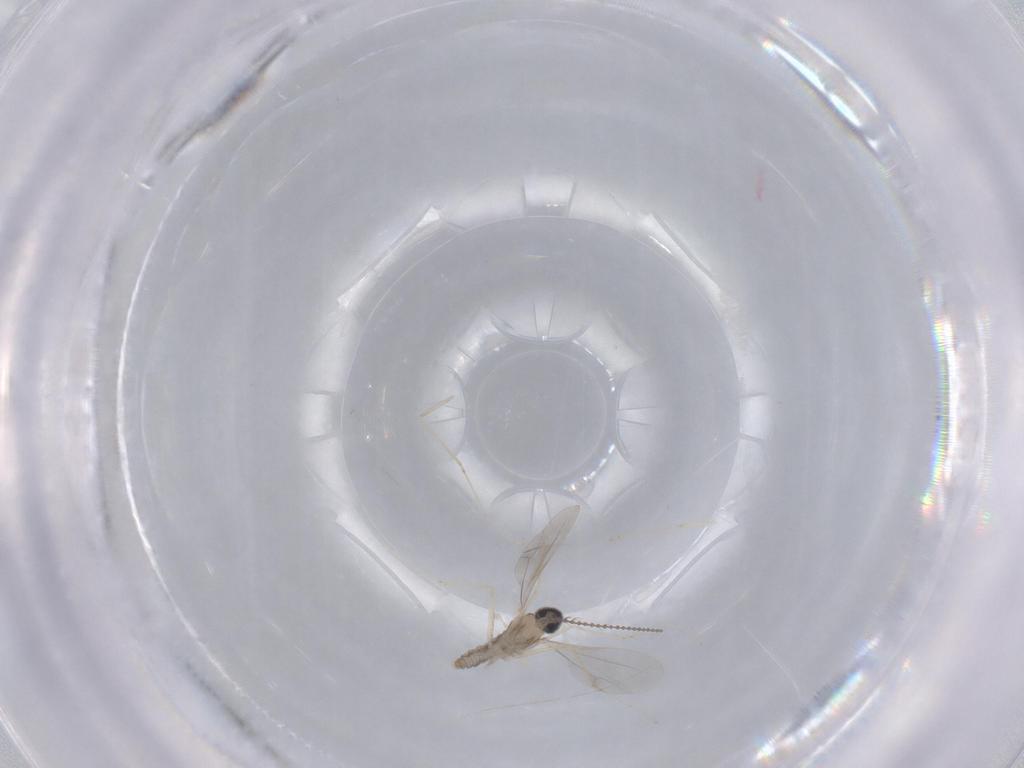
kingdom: Animalia
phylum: Arthropoda
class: Insecta
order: Diptera
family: Cecidomyiidae
